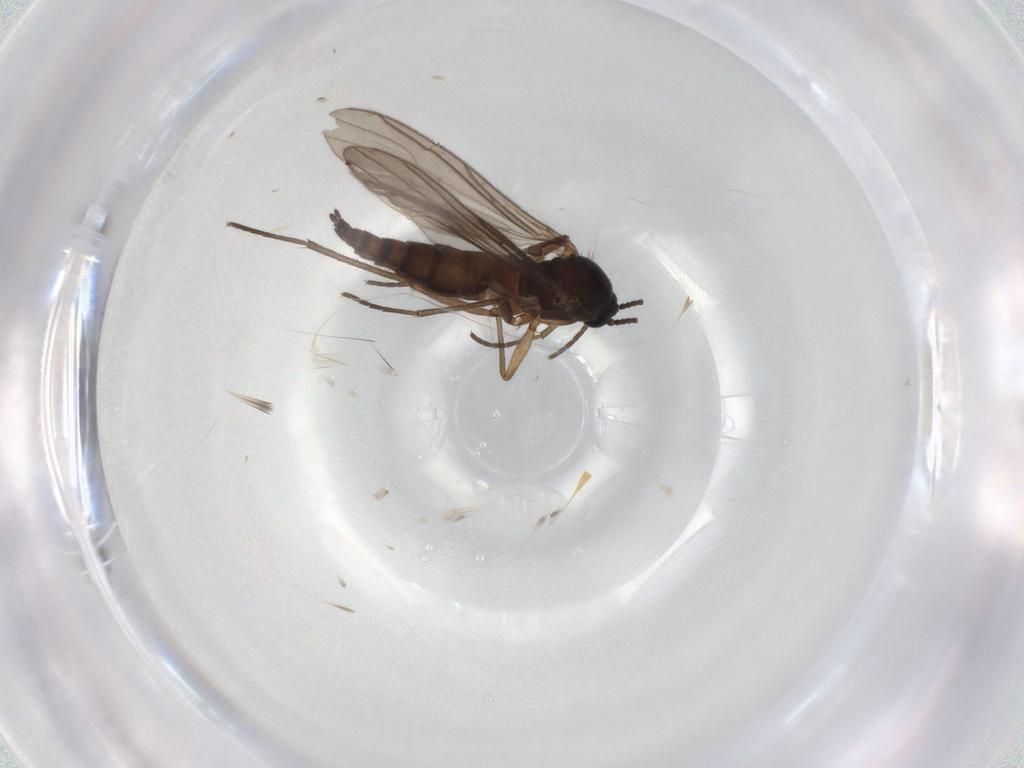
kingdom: Animalia
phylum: Arthropoda
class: Insecta
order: Diptera
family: Sciaridae
